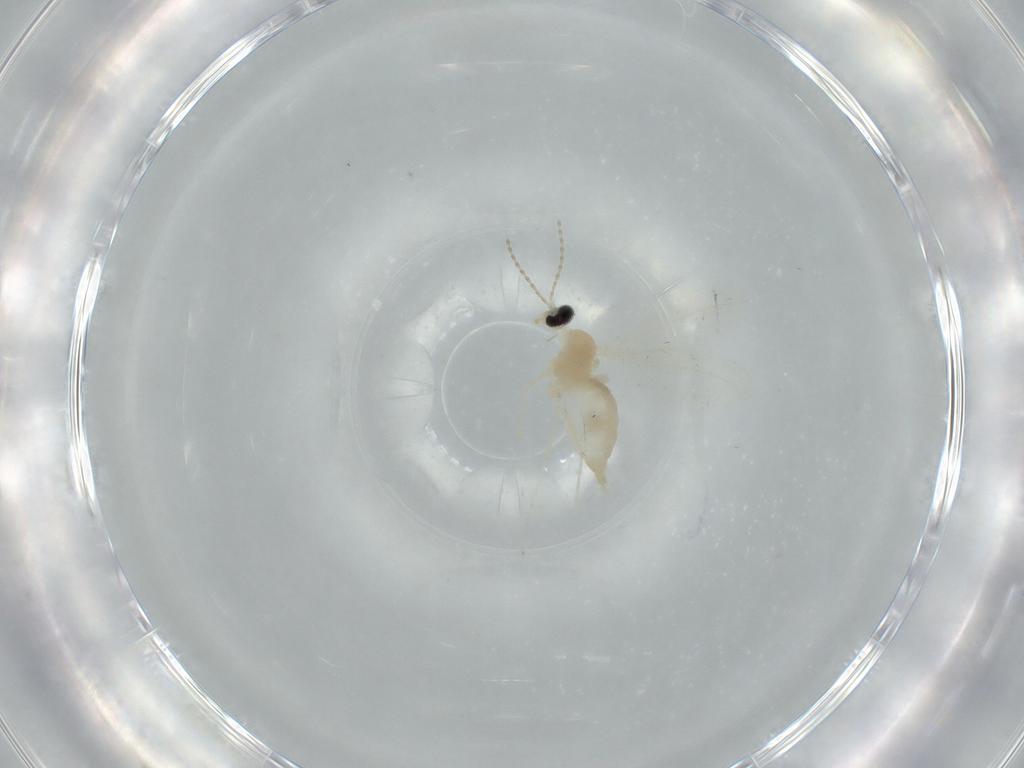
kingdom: Animalia
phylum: Arthropoda
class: Insecta
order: Diptera
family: Cecidomyiidae
